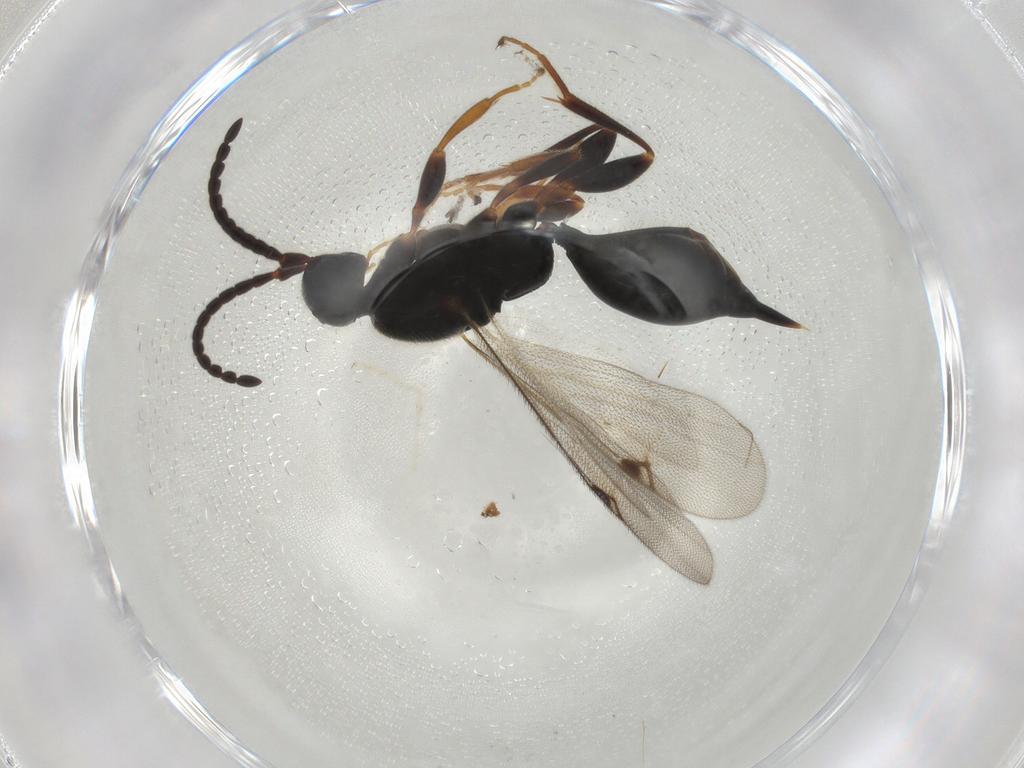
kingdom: Animalia
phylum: Arthropoda
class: Insecta
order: Hymenoptera
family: Proctotrupidae
